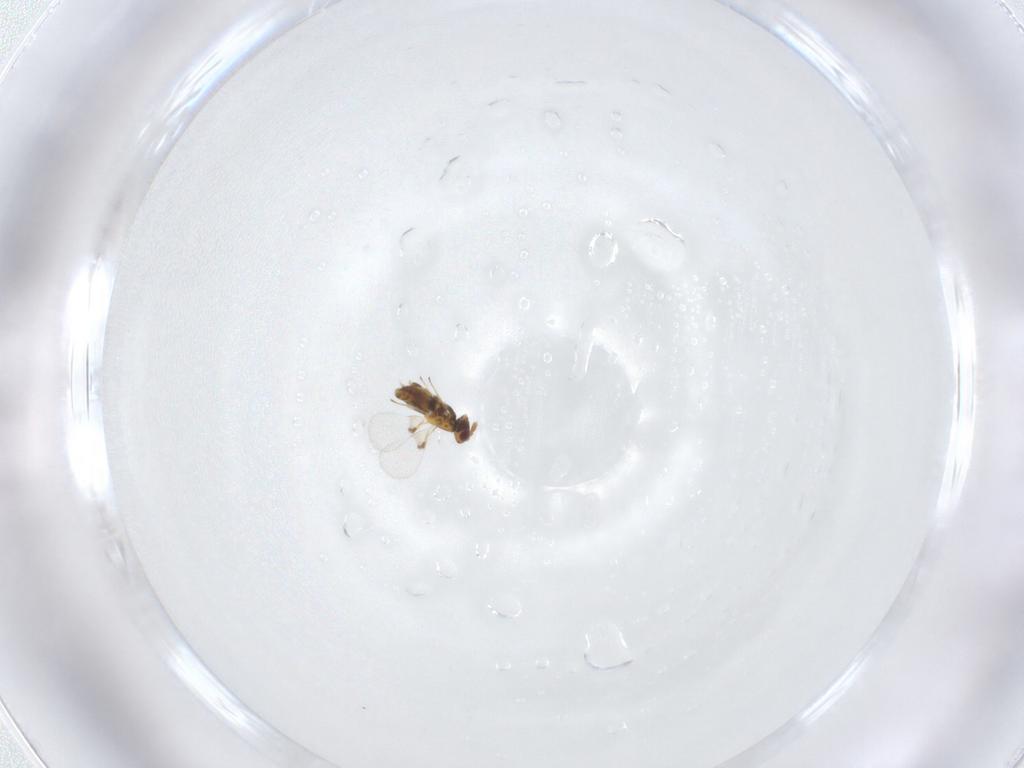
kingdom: Animalia
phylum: Arthropoda
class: Insecta
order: Hymenoptera
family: Trichogrammatidae
